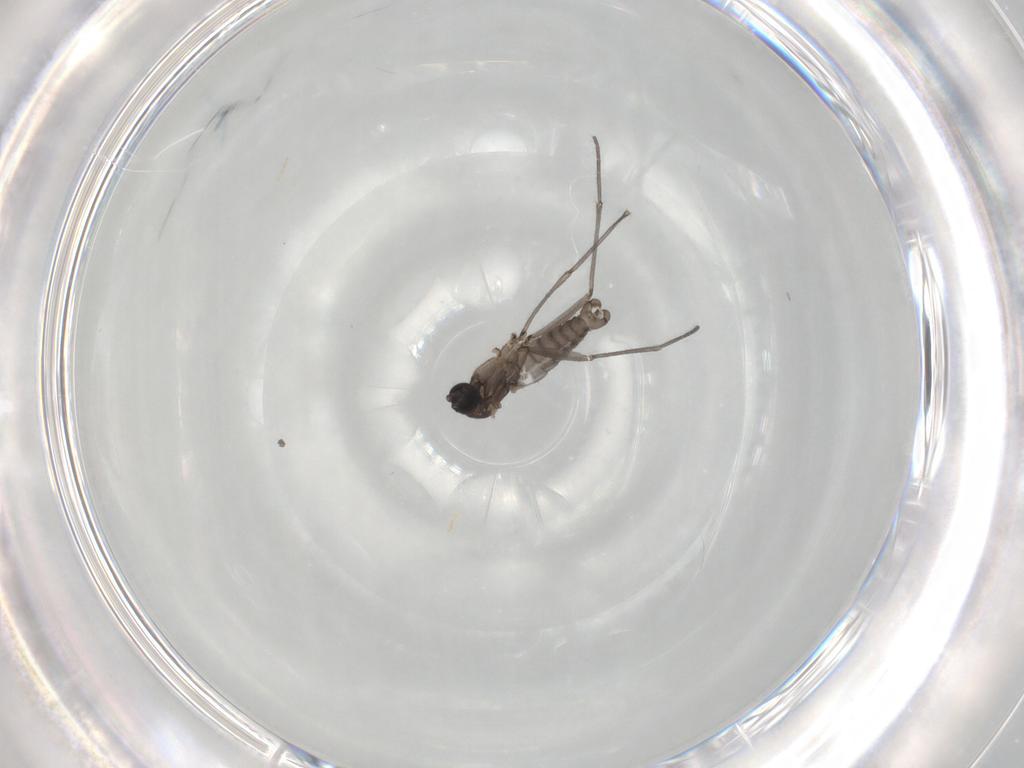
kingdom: Animalia
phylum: Arthropoda
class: Insecta
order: Diptera
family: Sciaridae
